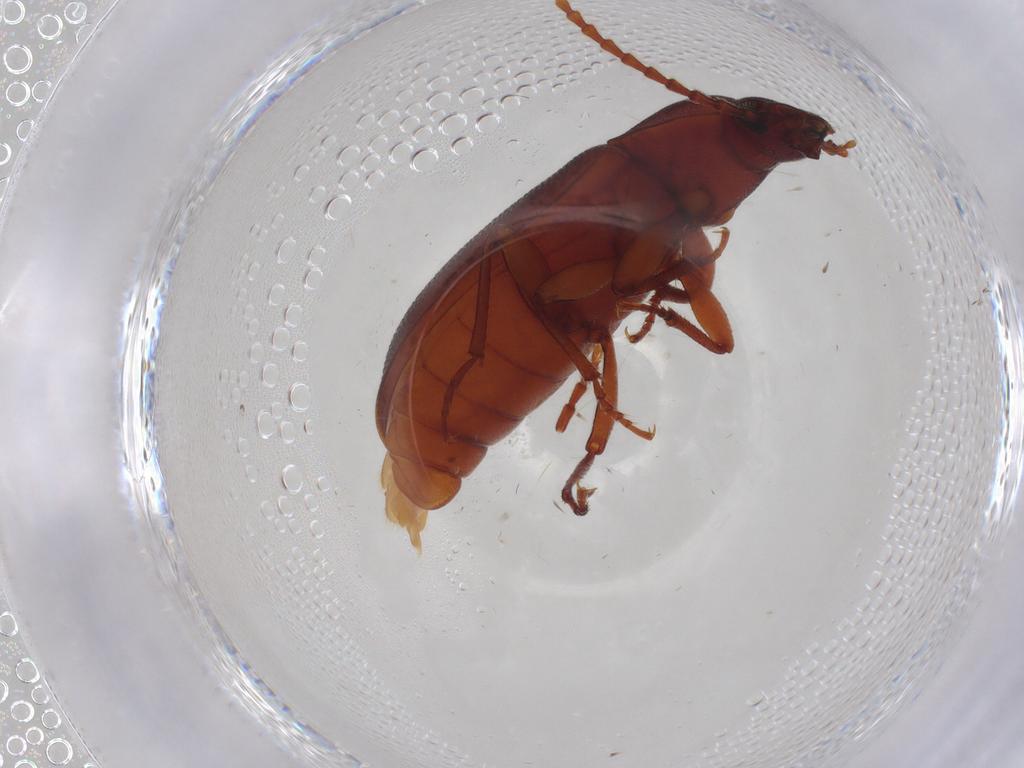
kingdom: Animalia
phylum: Arthropoda
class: Insecta
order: Coleoptera
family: Tenebrionidae
